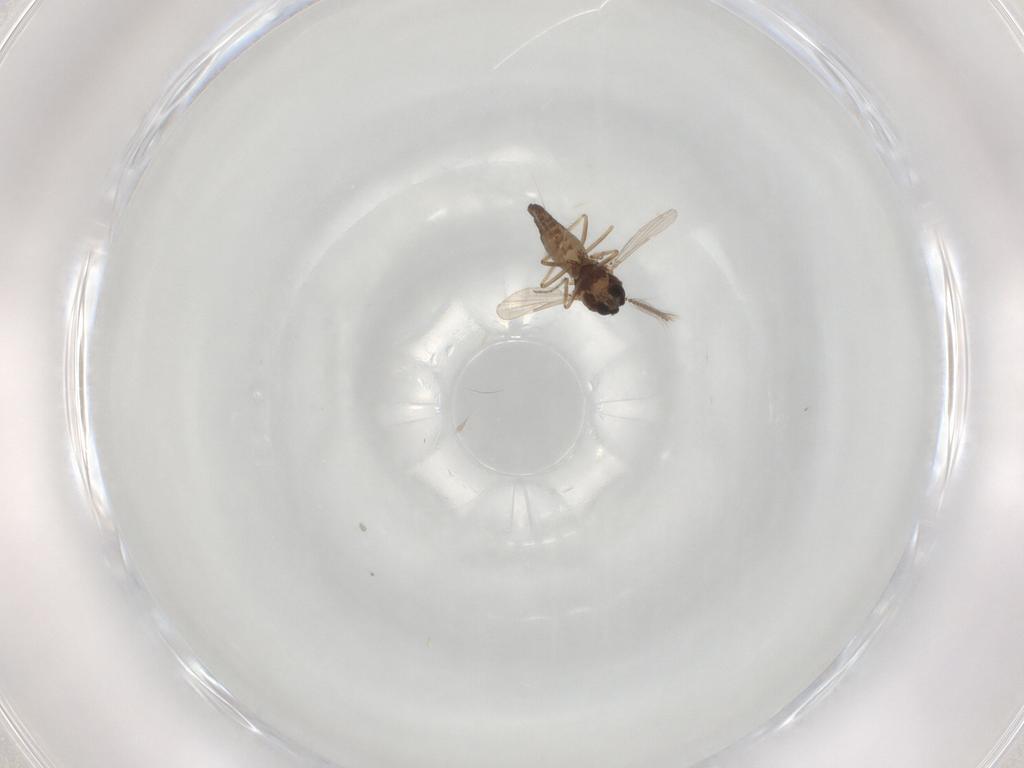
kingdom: Animalia
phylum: Arthropoda
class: Insecta
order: Diptera
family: Ceratopogonidae
